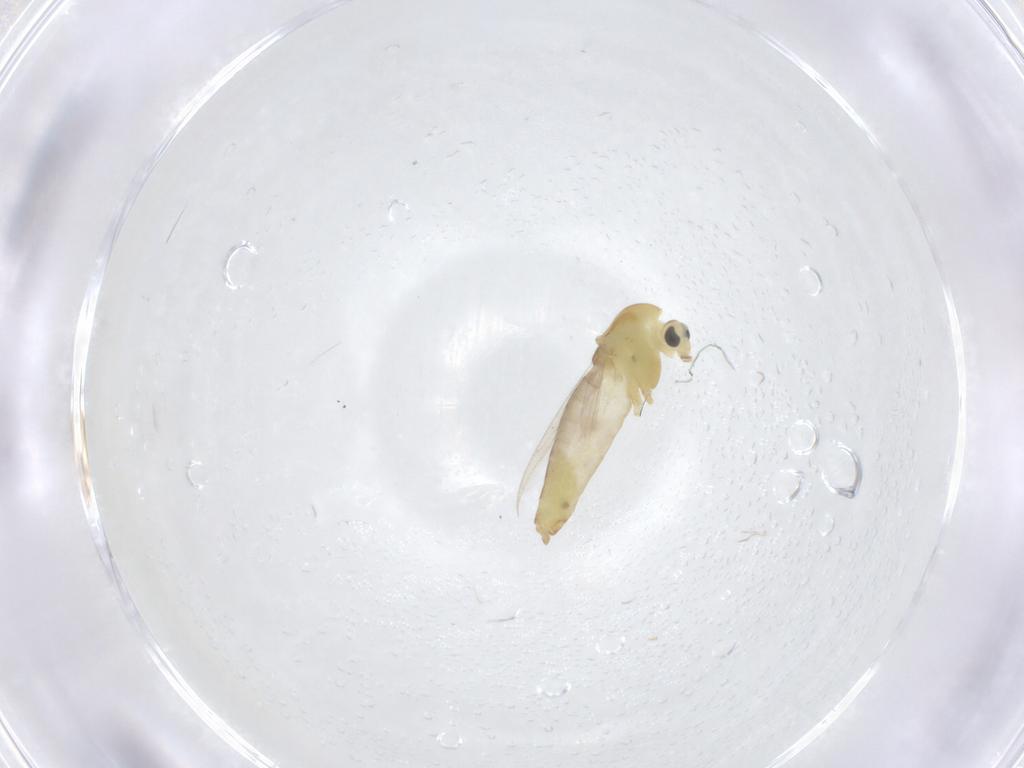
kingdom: Animalia
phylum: Arthropoda
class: Insecta
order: Diptera
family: Chironomidae
